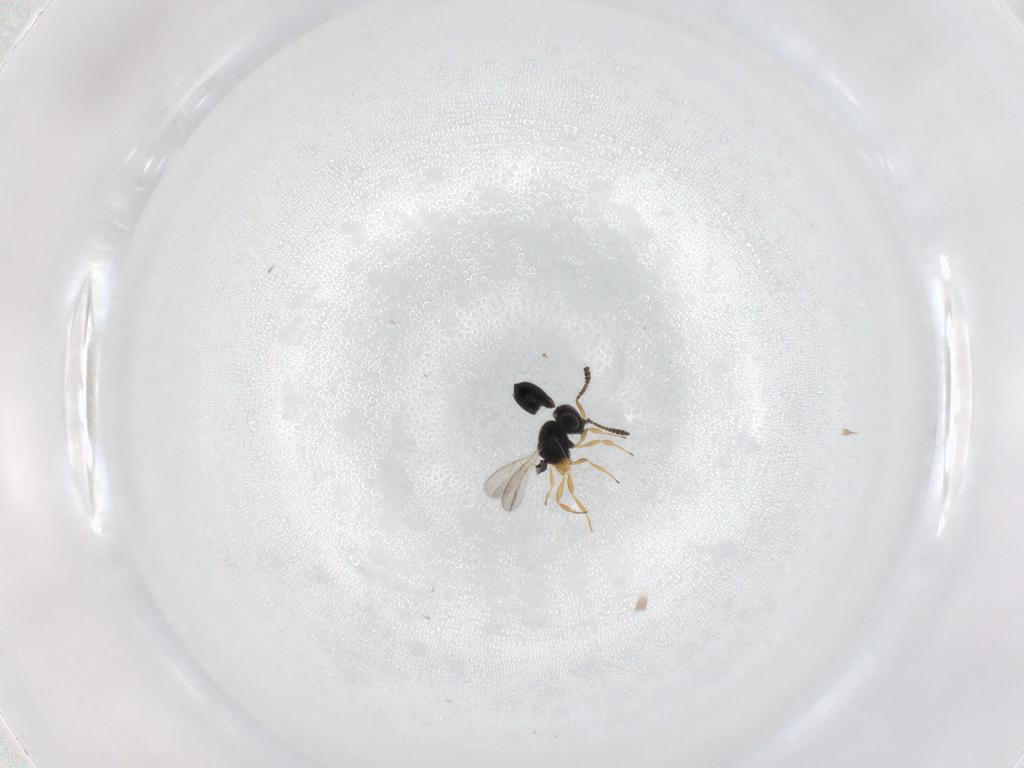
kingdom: Animalia
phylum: Arthropoda
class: Insecta
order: Hymenoptera
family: Scelionidae
